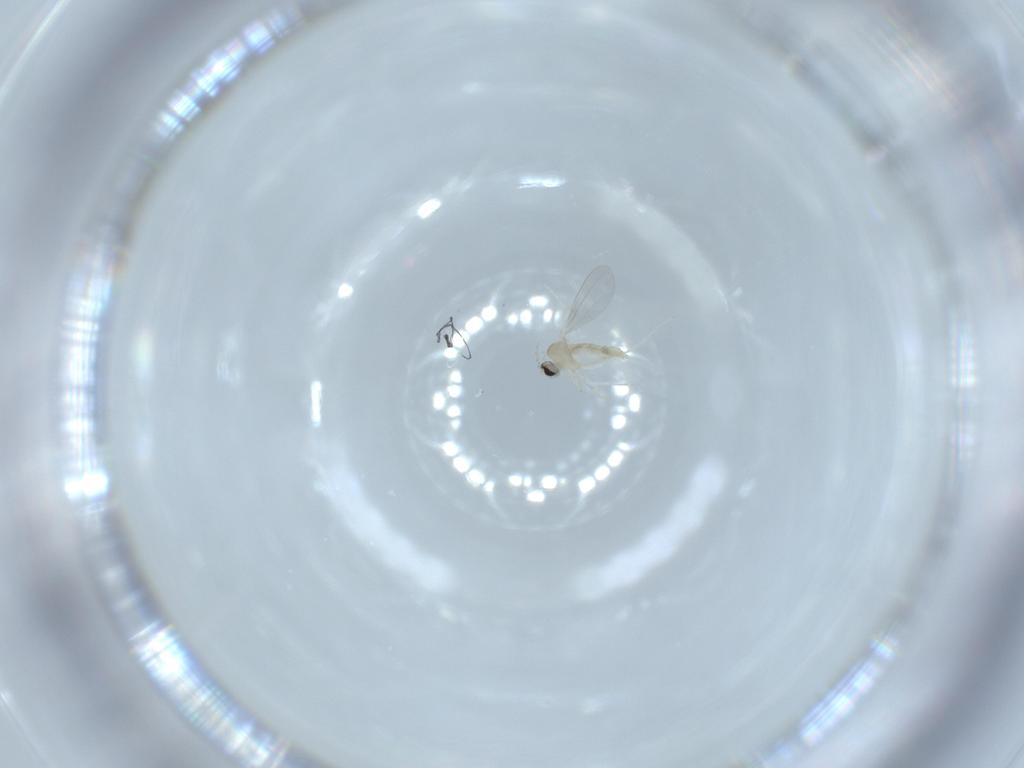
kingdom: Animalia
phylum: Arthropoda
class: Insecta
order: Diptera
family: Cecidomyiidae
